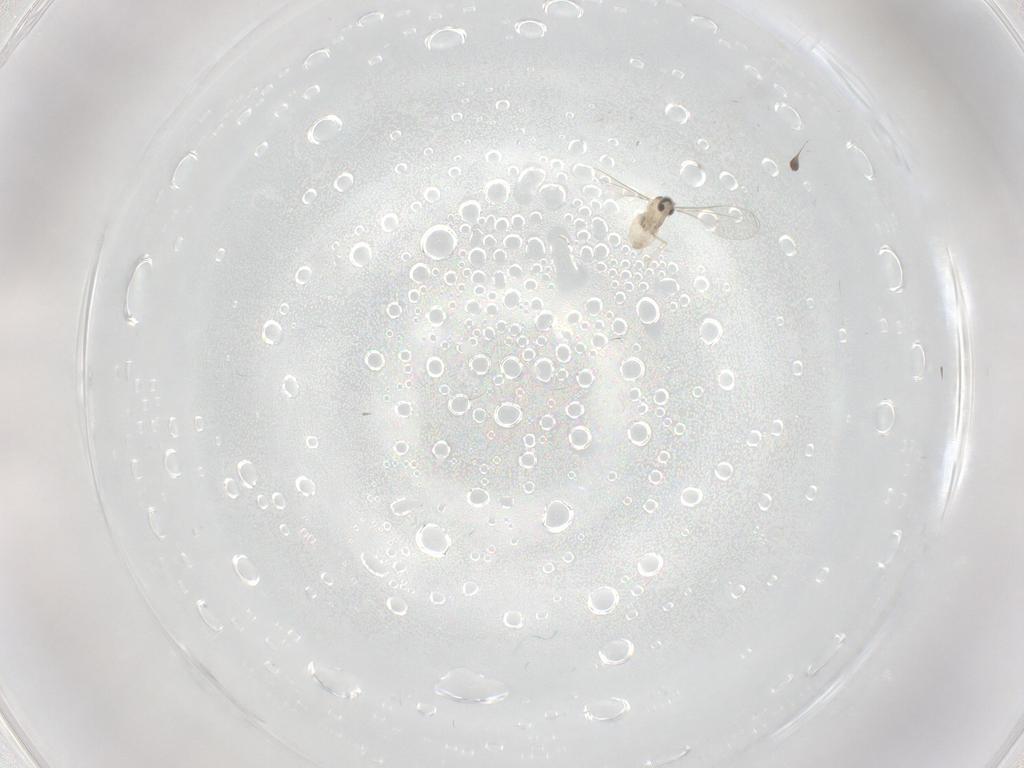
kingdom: Animalia
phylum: Arthropoda
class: Insecta
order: Diptera
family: Cecidomyiidae
